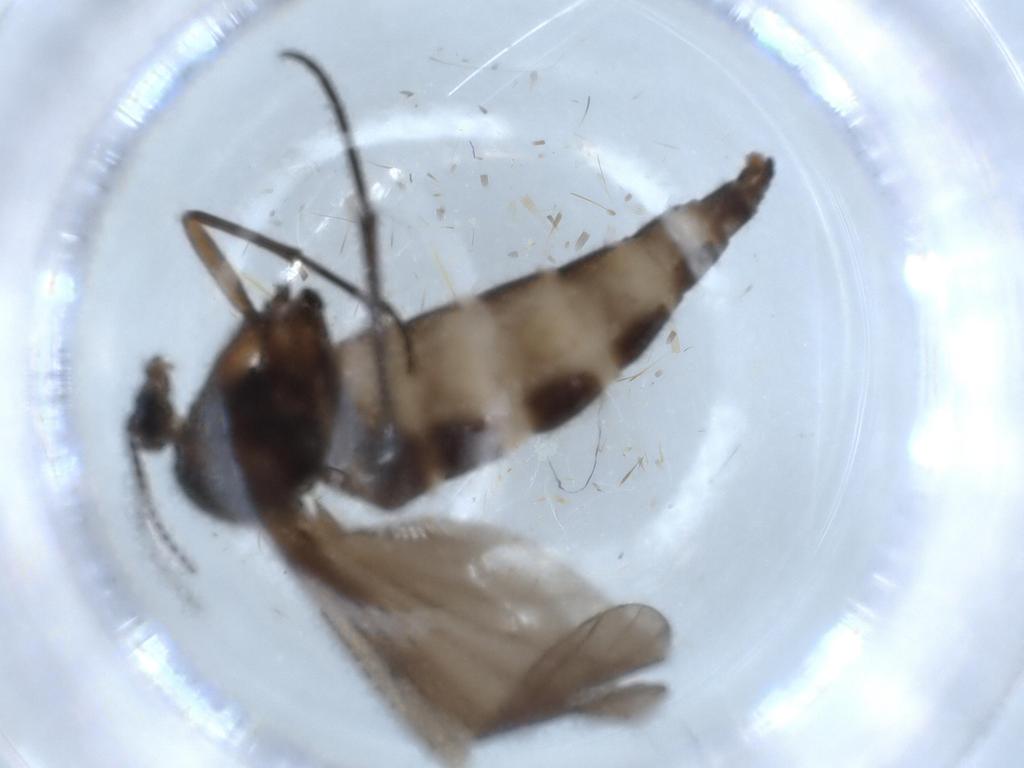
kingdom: Animalia
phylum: Arthropoda
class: Insecta
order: Diptera
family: Sciaridae
